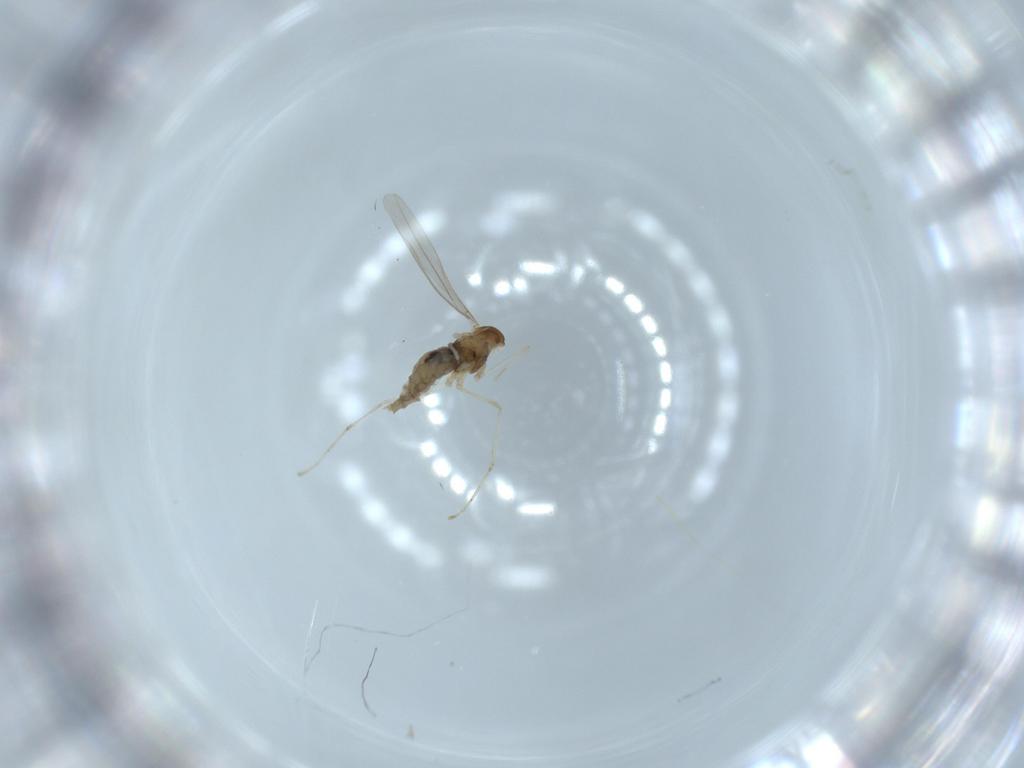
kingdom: Animalia
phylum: Arthropoda
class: Insecta
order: Diptera
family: Cecidomyiidae
